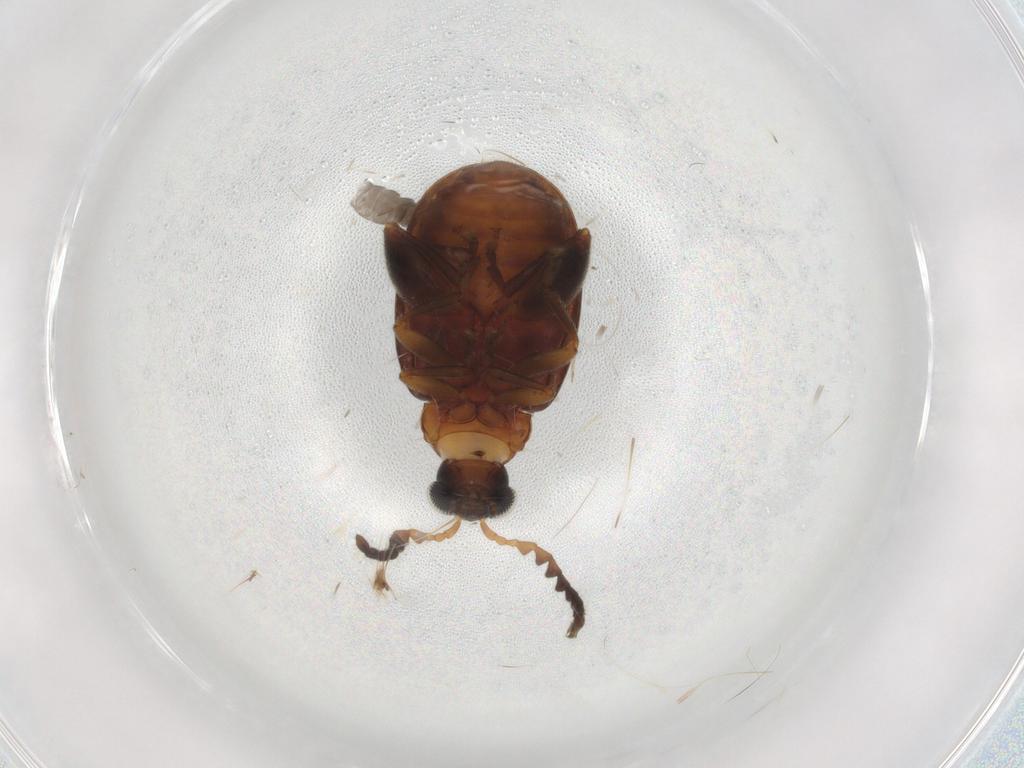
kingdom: Animalia
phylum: Arthropoda
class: Insecta
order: Coleoptera
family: Chrysomelidae
